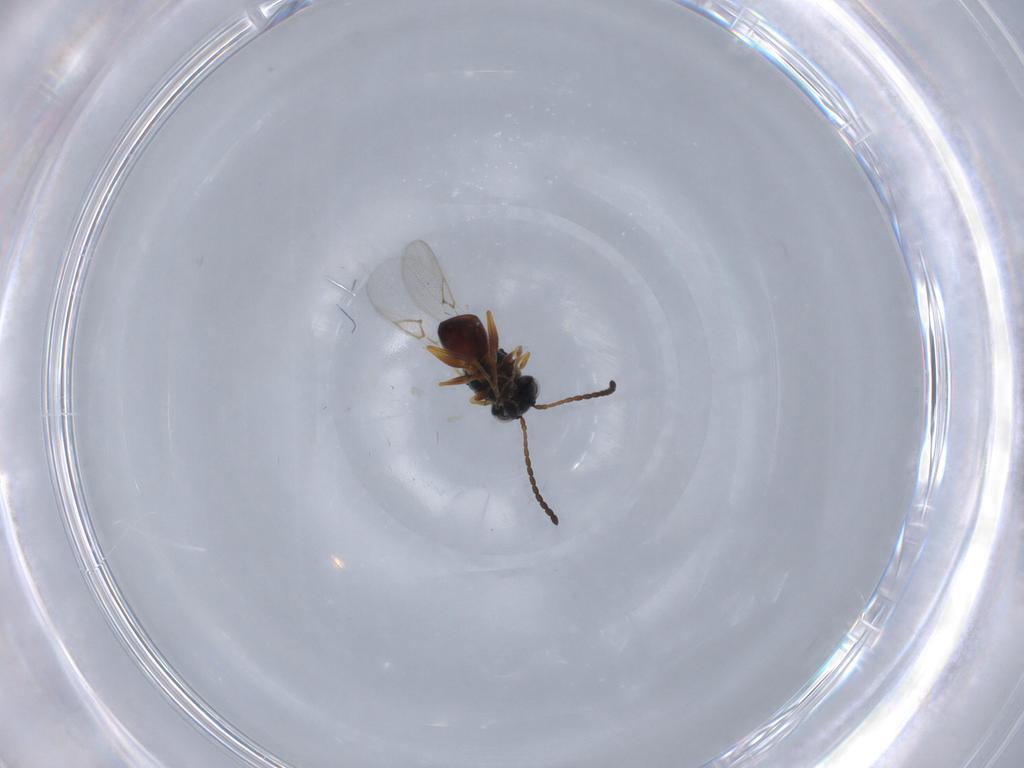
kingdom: Animalia
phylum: Arthropoda
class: Insecta
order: Hymenoptera
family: Figitidae
